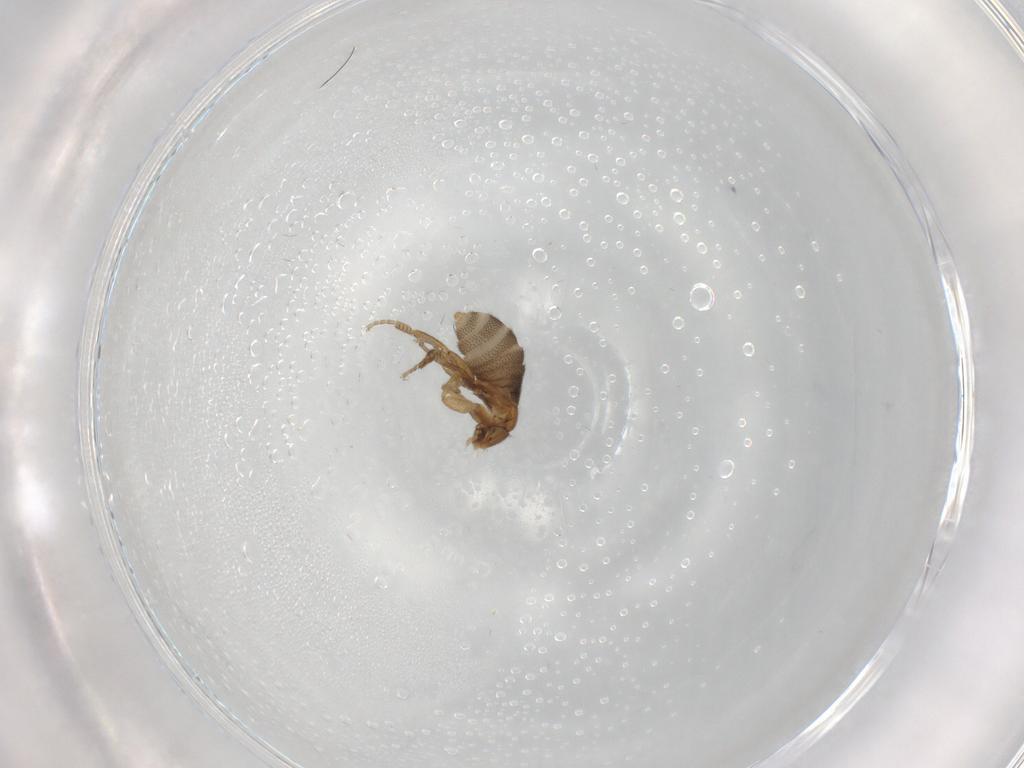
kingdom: Animalia
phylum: Arthropoda
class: Insecta
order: Diptera
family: Phoridae
